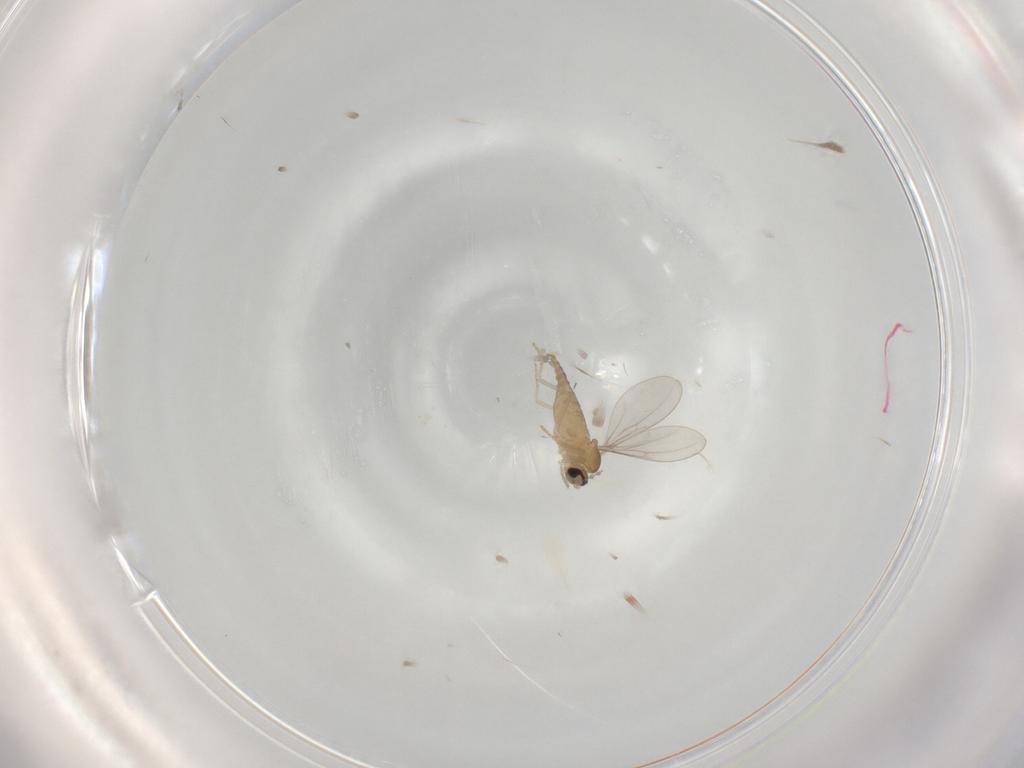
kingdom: Animalia
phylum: Arthropoda
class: Insecta
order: Diptera
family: Cecidomyiidae
